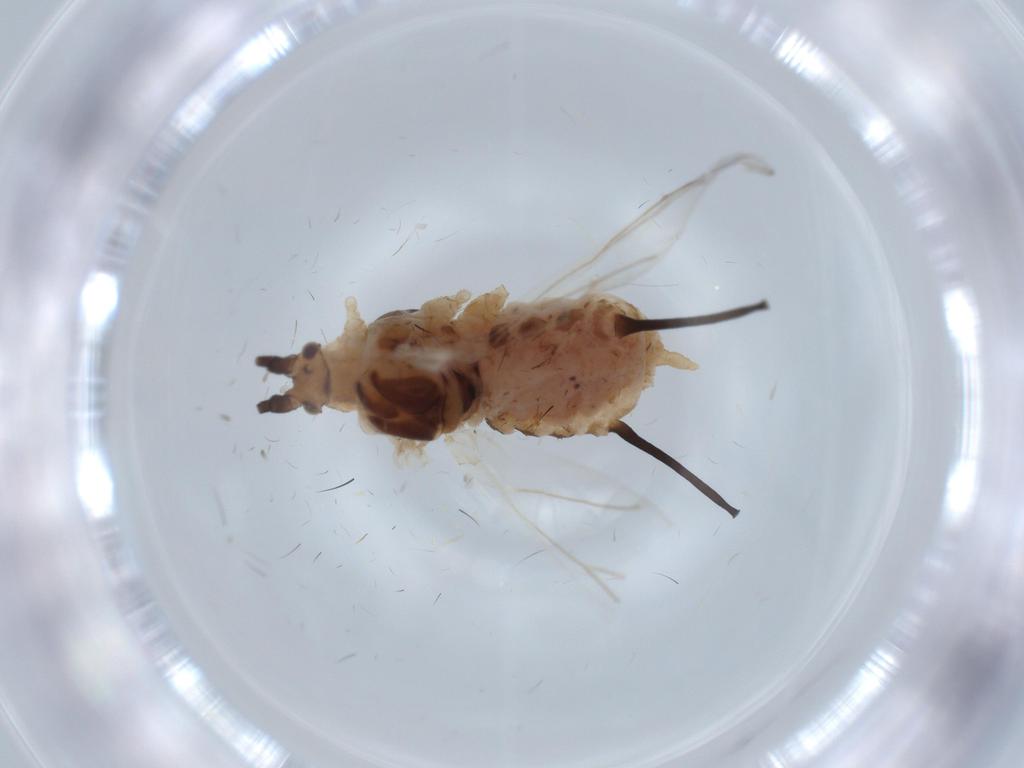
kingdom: Animalia
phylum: Arthropoda
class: Insecta
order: Hemiptera
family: Aphididae
